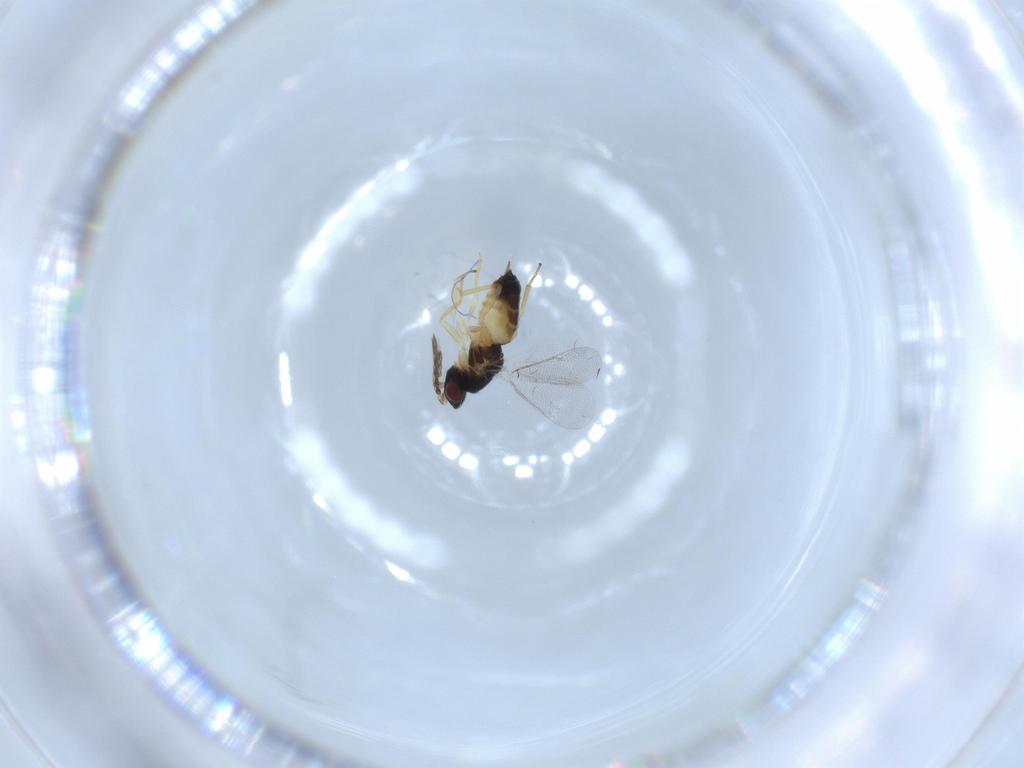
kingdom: Animalia
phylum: Arthropoda
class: Insecta
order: Hymenoptera
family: Eulophidae
